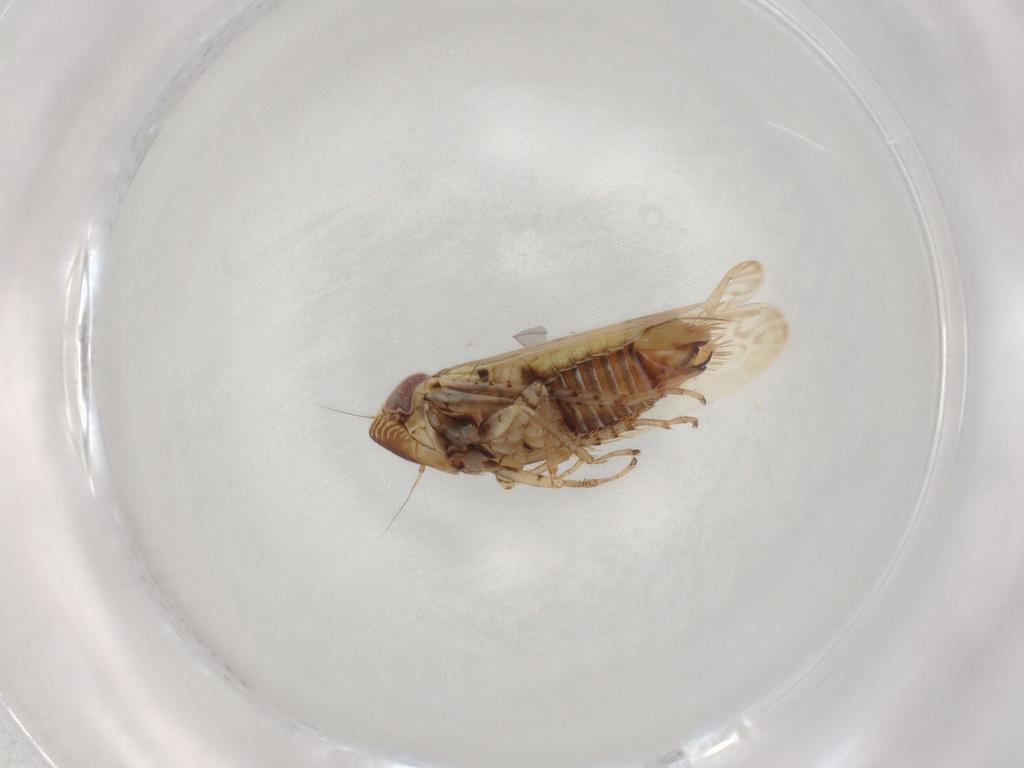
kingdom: Animalia
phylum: Arthropoda
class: Insecta
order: Hemiptera
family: Cicadellidae
